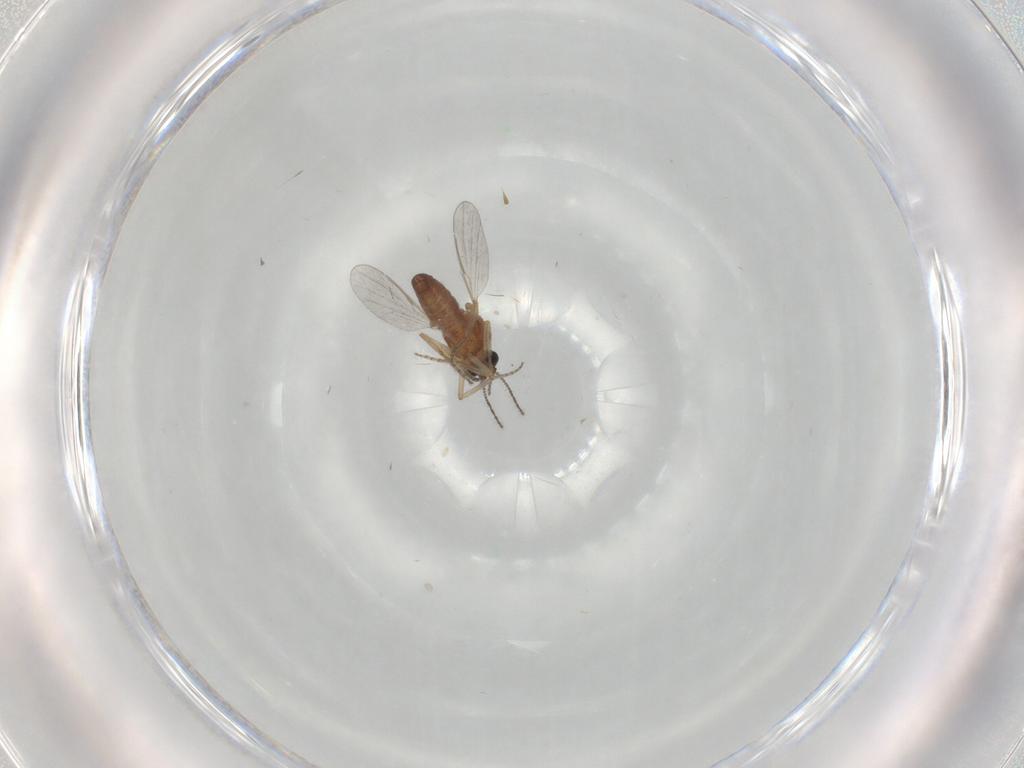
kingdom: Animalia
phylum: Arthropoda
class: Insecta
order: Diptera
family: Ceratopogonidae
